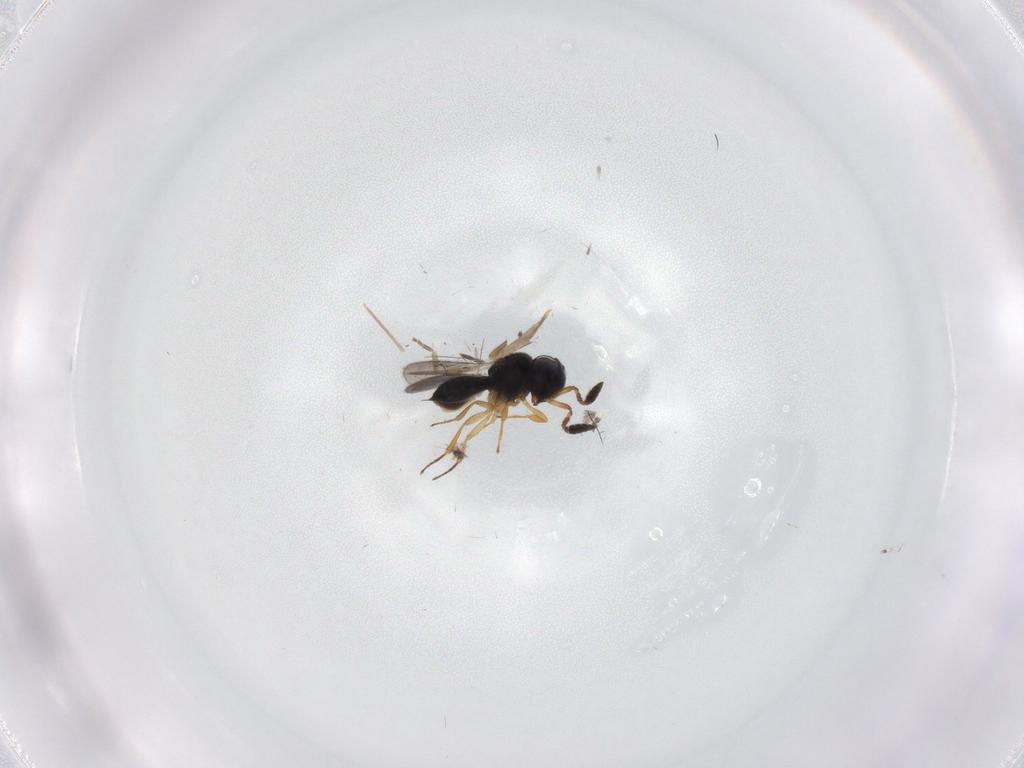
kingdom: Animalia
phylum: Arthropoda
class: Insecta
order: Hymenoptera
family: Scelionidae
